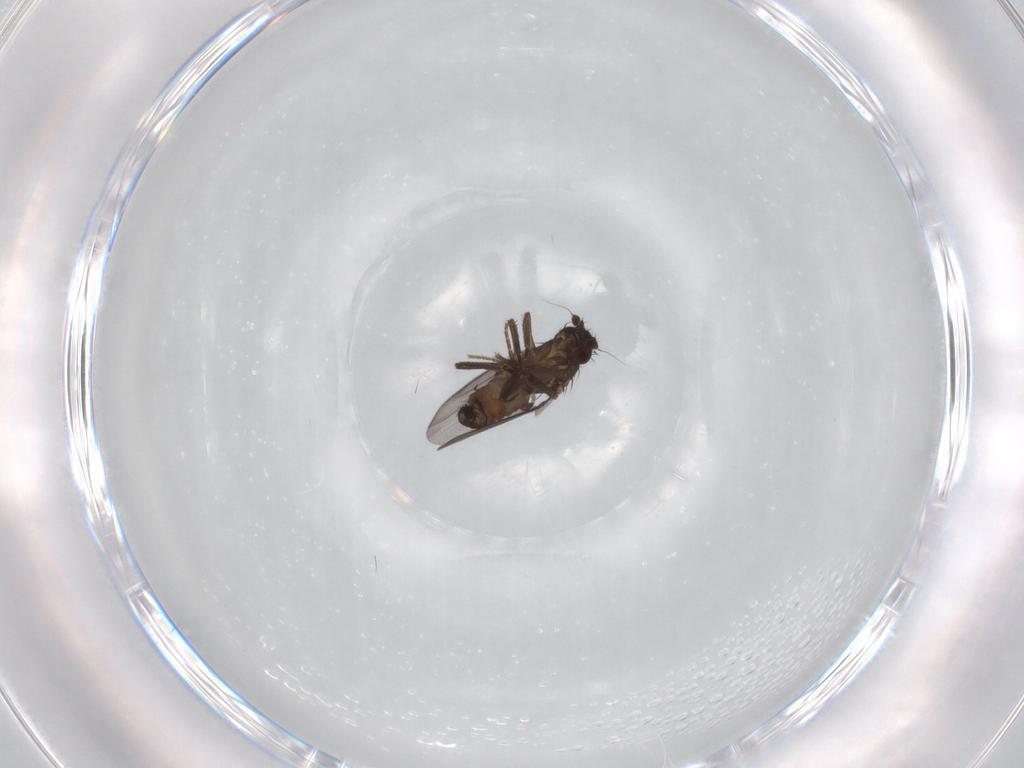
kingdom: Animalia
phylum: Arthropoda
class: Insecta
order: Diptera
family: Sphaeroceridae
